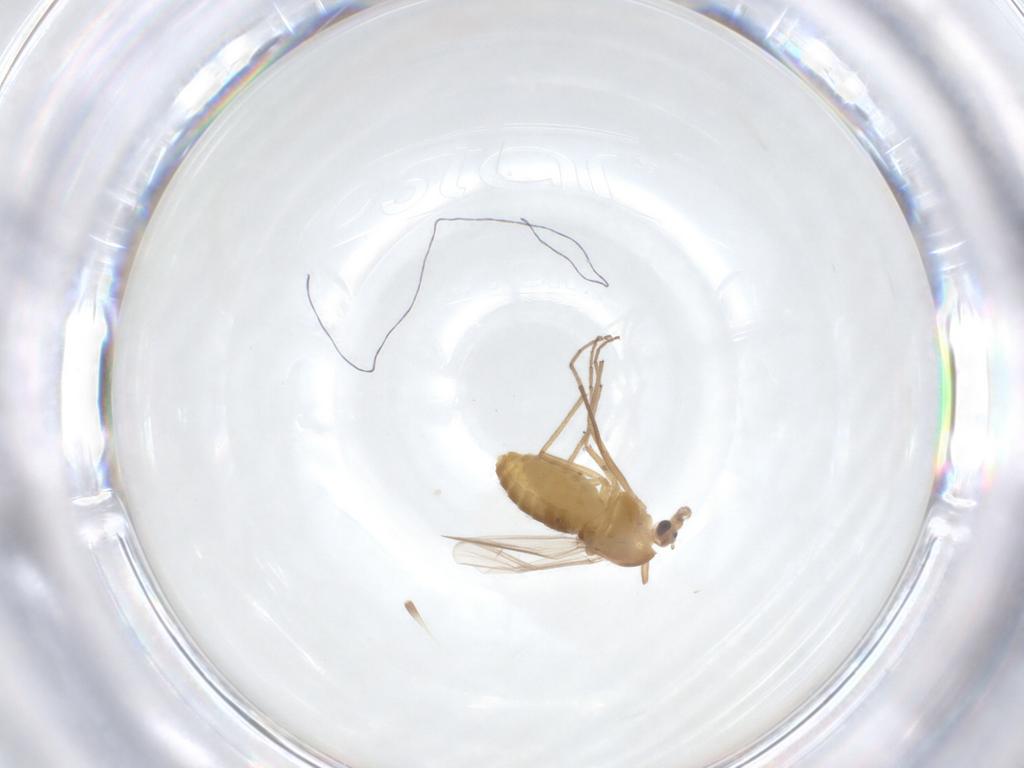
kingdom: Animalia
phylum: Arthropoda
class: Insecta
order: Diptera
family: Chironomidae
